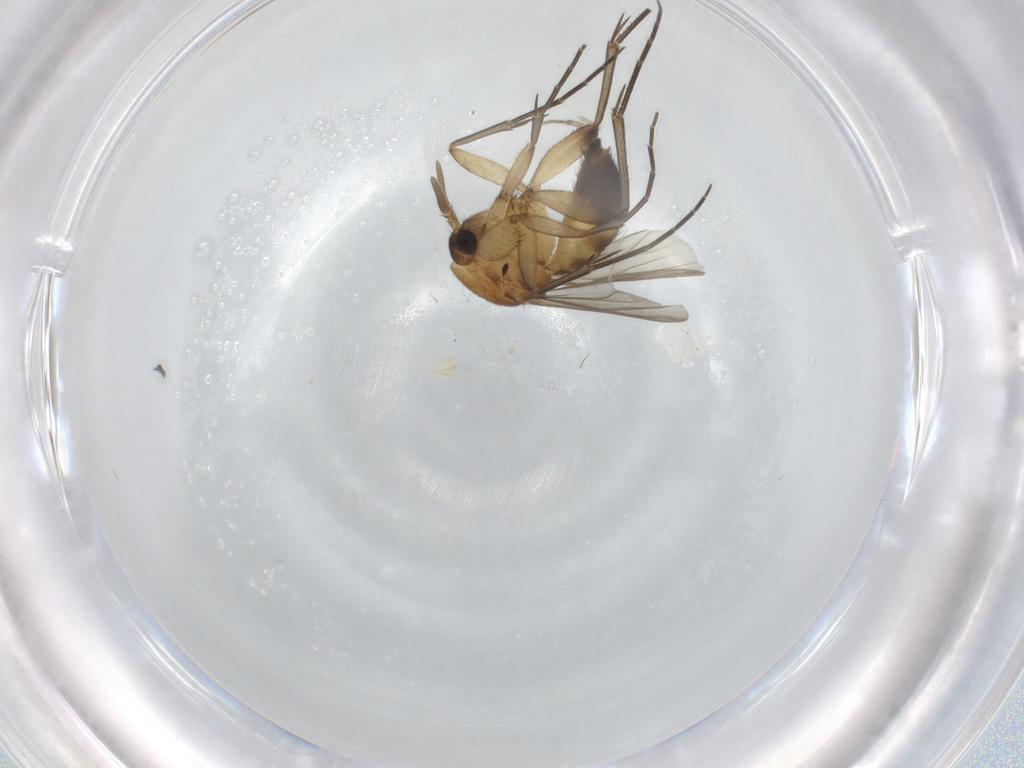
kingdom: Animalia
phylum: Arthropoda
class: Insecta
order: Diptera
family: Mycetophilidae
